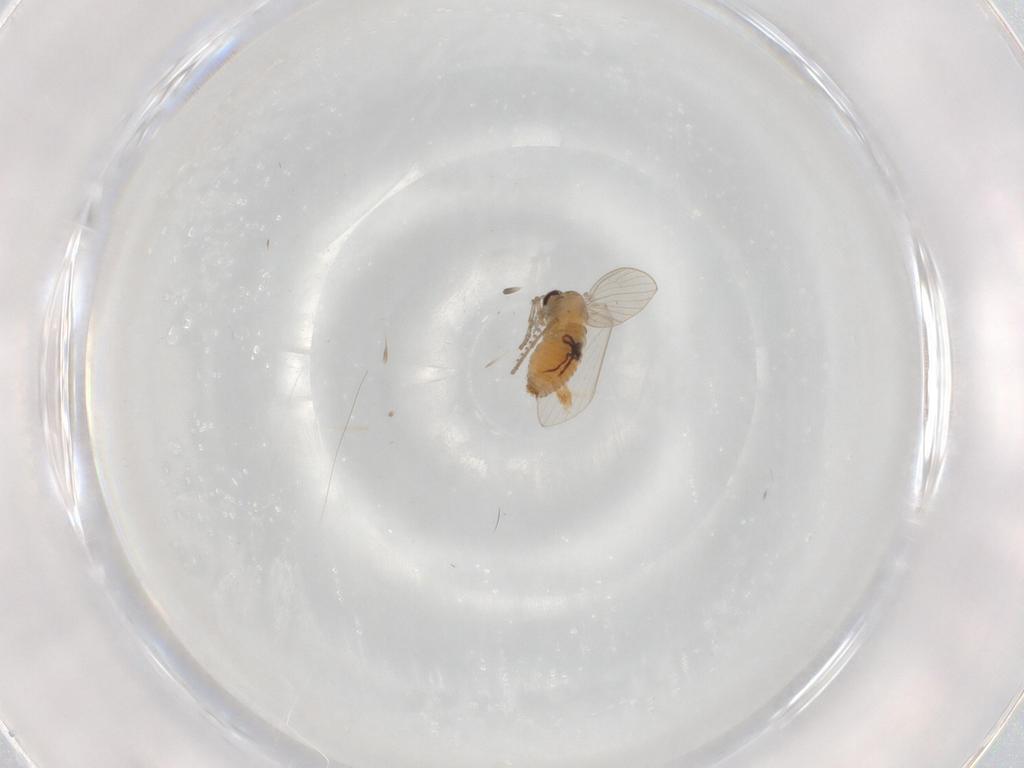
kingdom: Animalia
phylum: Arthropoda
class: Insecta
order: Diptera
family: Psychodidae
